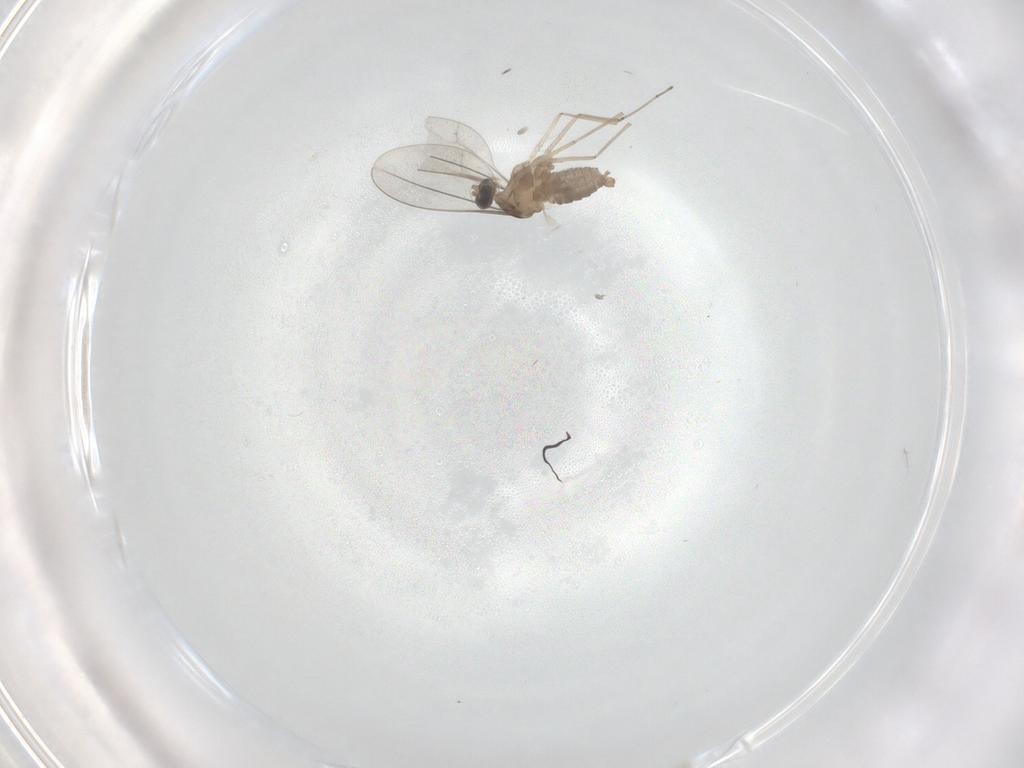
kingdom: Animalia
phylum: Arthropoda
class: Insecta
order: Diptera
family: Cecidomyiidae
